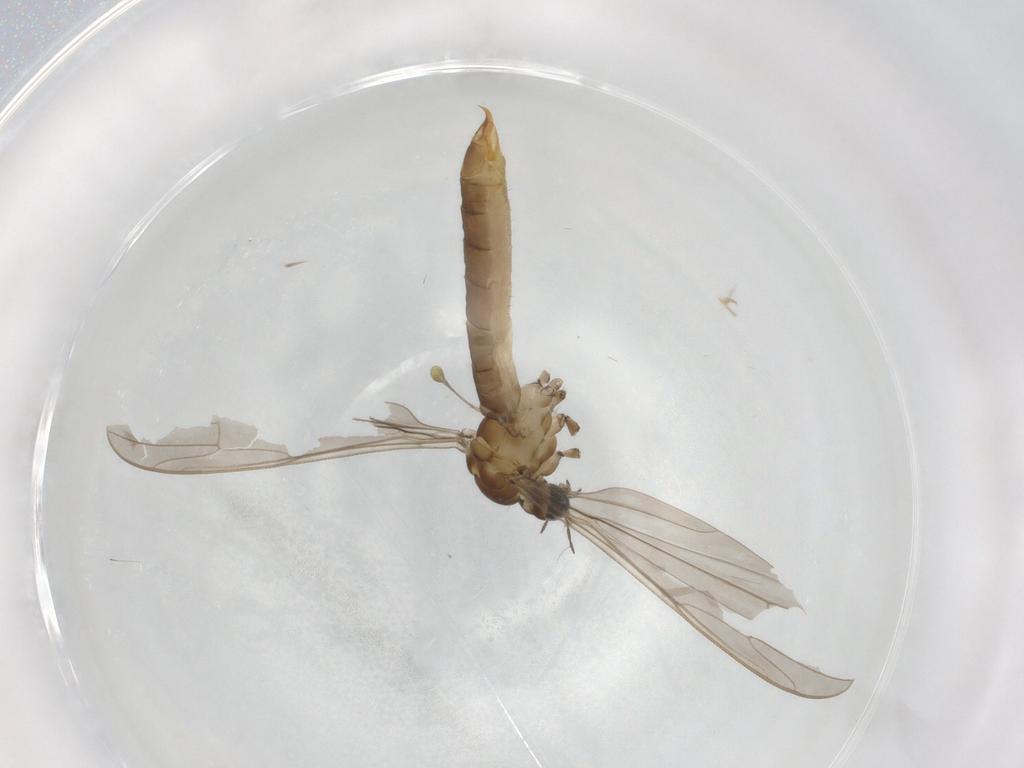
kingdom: Animalia
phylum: Arthropoda
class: Insecta
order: Diptera
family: Limoniidae
